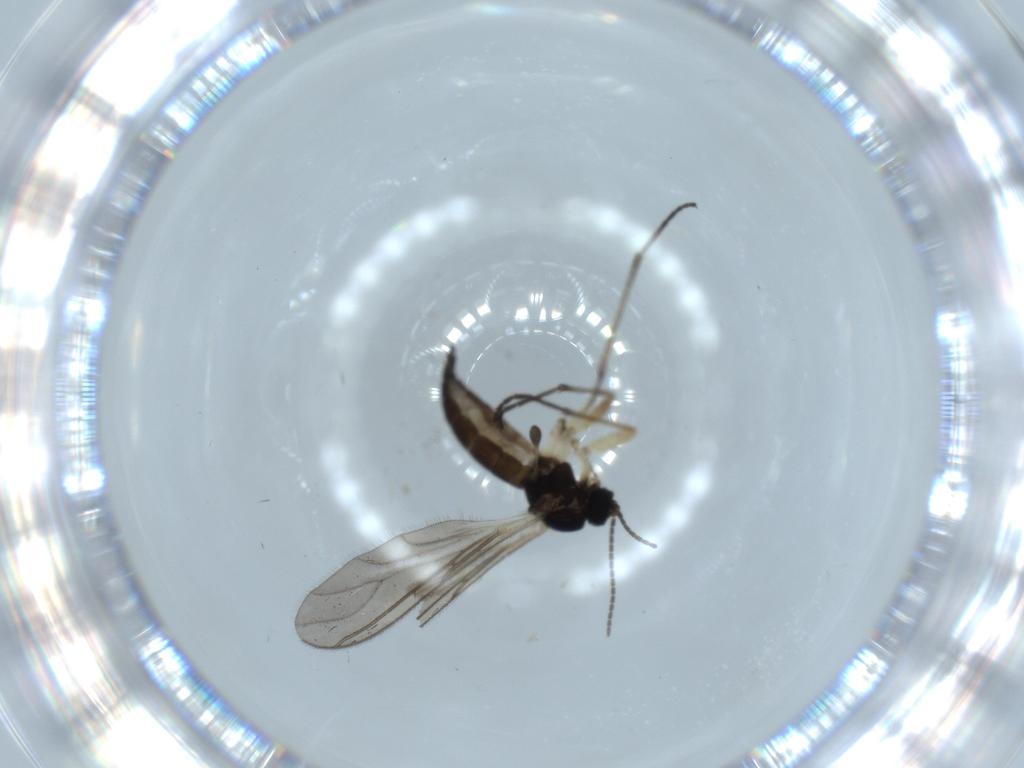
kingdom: Animalia
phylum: Arthropoda
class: Insecta
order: Diptera
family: Sciaridae
